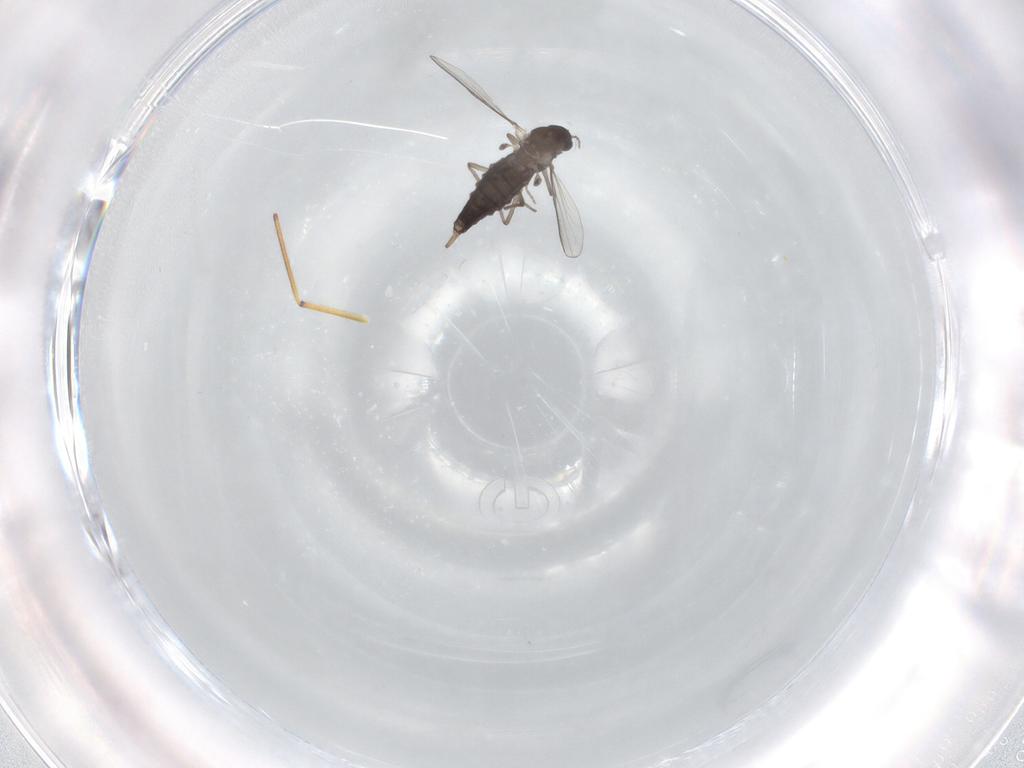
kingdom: Animalia
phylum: Arthropoda
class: Insecta
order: Diptera
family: Chironomidae
